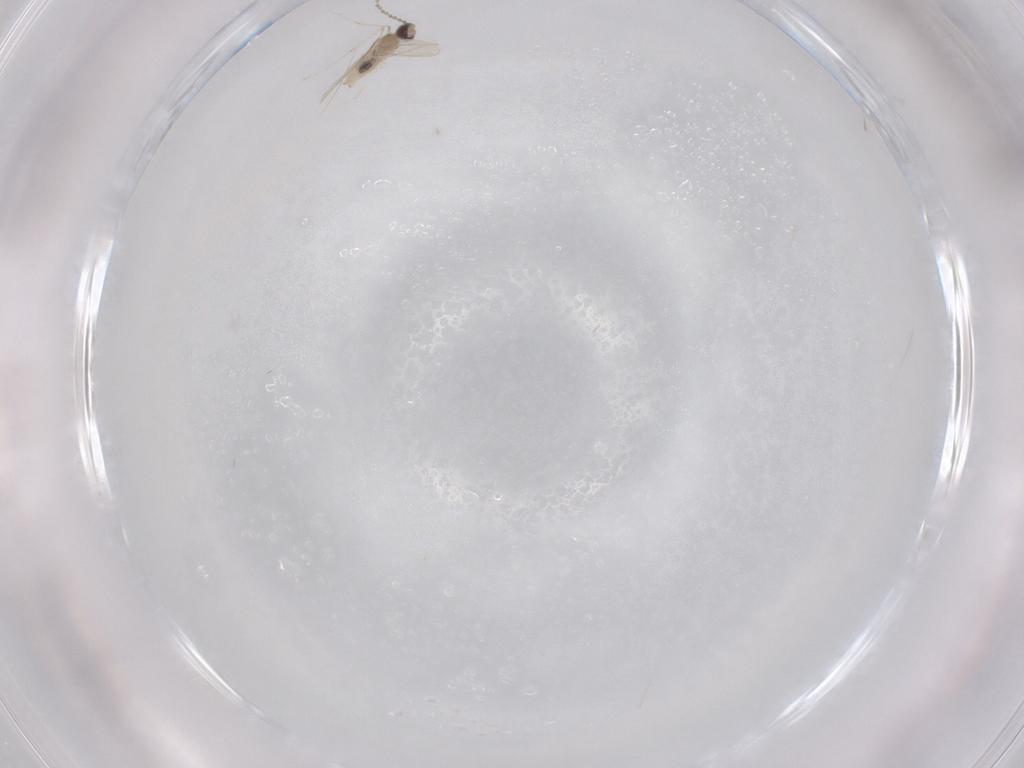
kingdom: Animalia
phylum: Arthropoda
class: Insecta
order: Diptera
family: Cecidomyiidae
